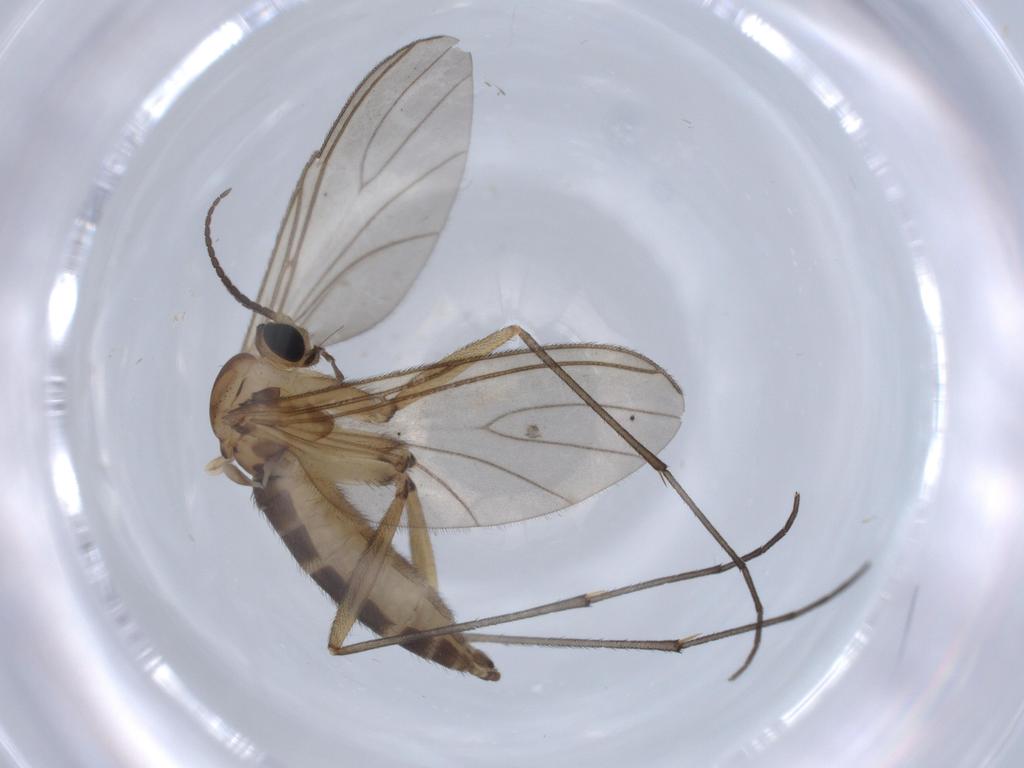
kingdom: Animalia
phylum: Arthropoda
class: Insecta
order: Diptera
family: Sciaridae
